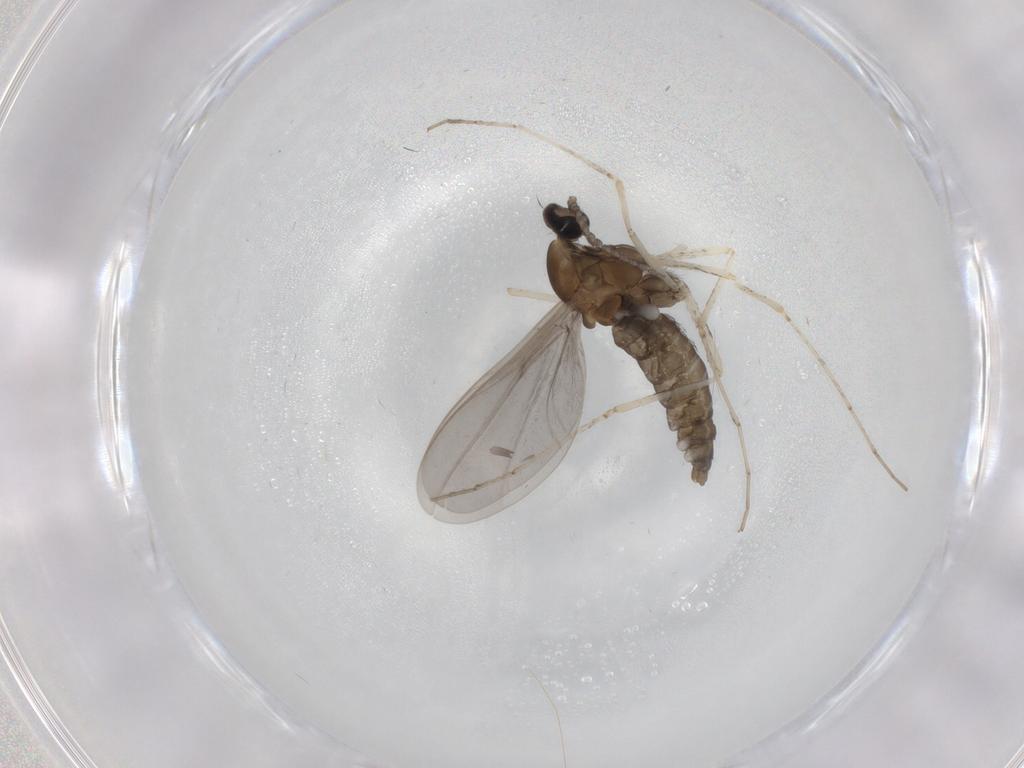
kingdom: Animalia
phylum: Arthropoda
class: Insecta
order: Diptera
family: Cecidomyiidae
